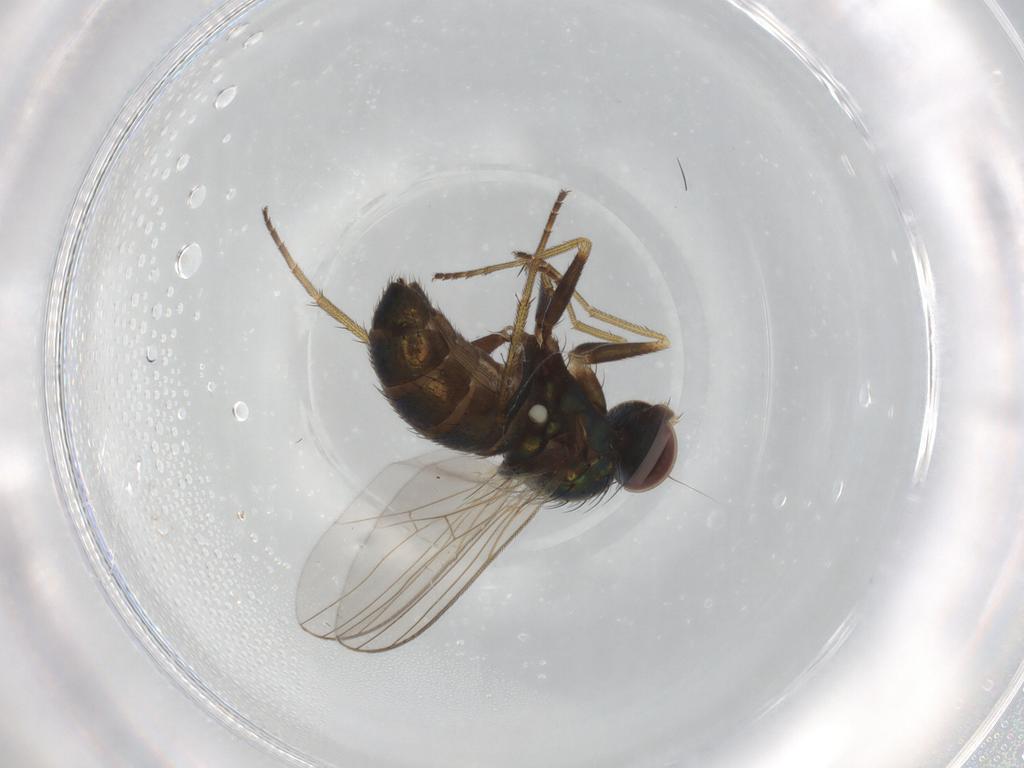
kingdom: Animalia
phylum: Arthropoda
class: Insecta
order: Diptera
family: Dolichopodidae
